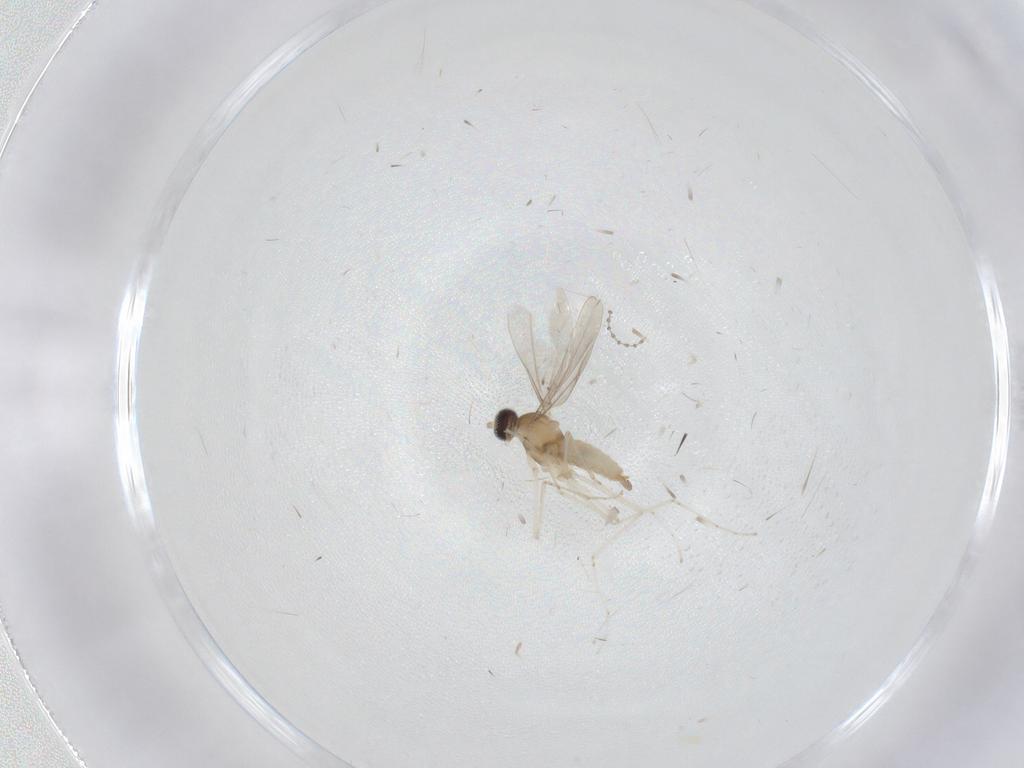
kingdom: Animalia
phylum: Arthropoda
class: Insecta
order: Diptera
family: Cecidomyiidae
